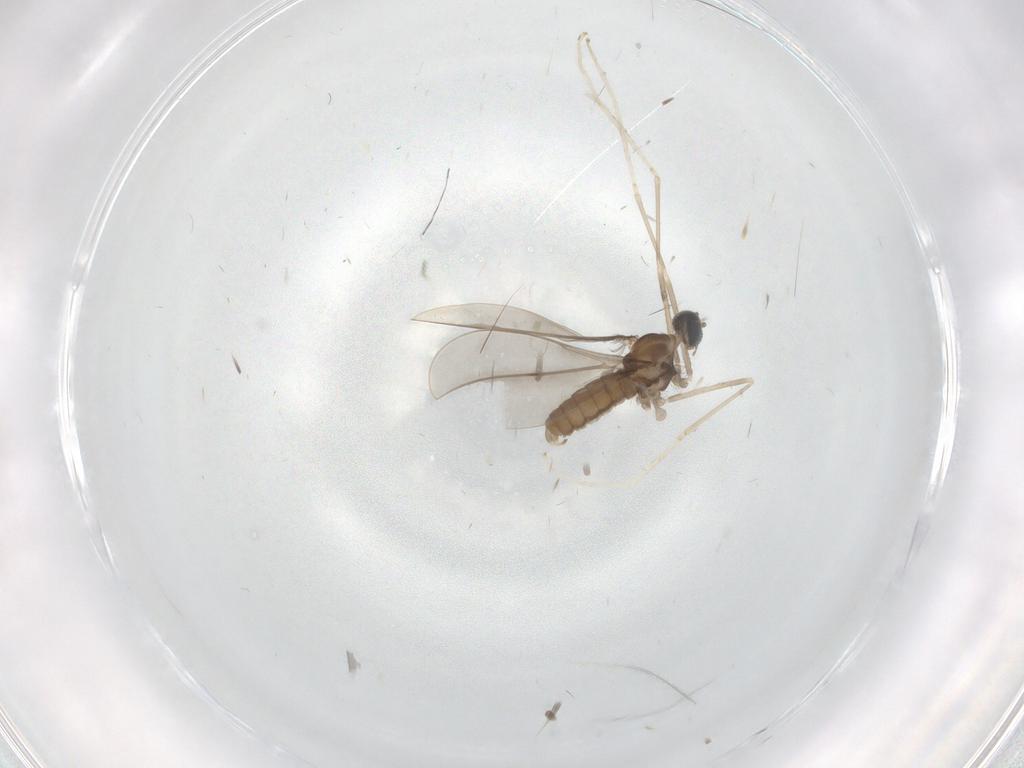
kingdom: Animalia
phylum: Arthropoda
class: Insecta
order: Diptera
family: Cecidomyiidae
